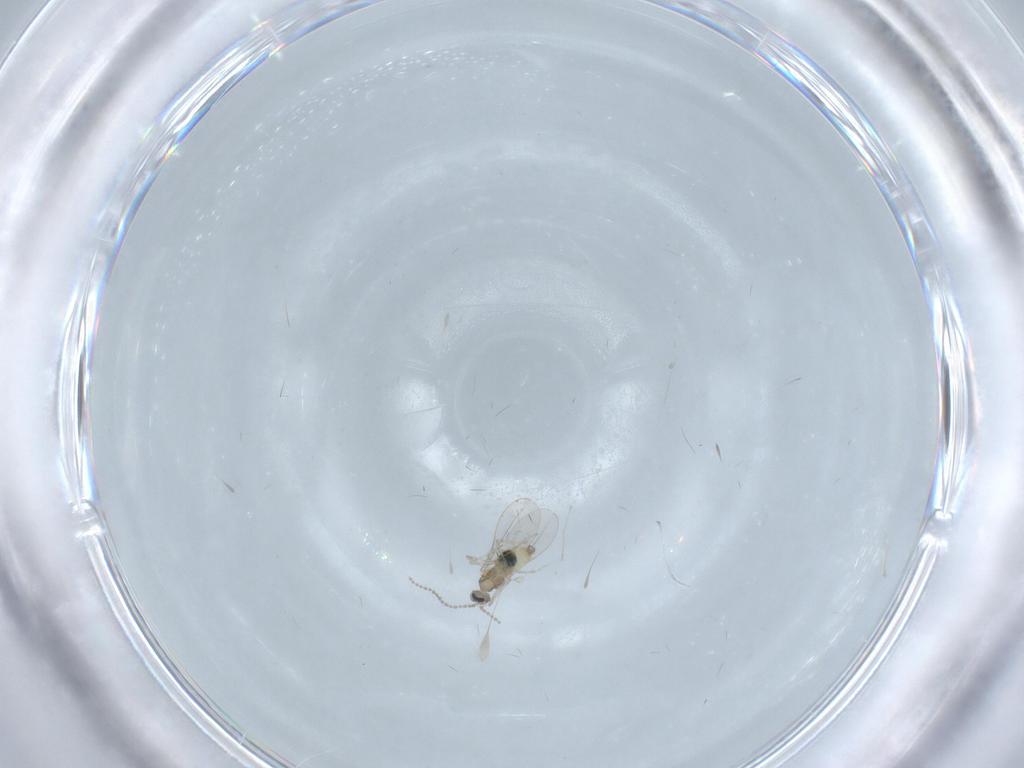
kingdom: Animalia
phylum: Arthropoda
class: Insecta
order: Diptera
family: Cecidomyiidae
